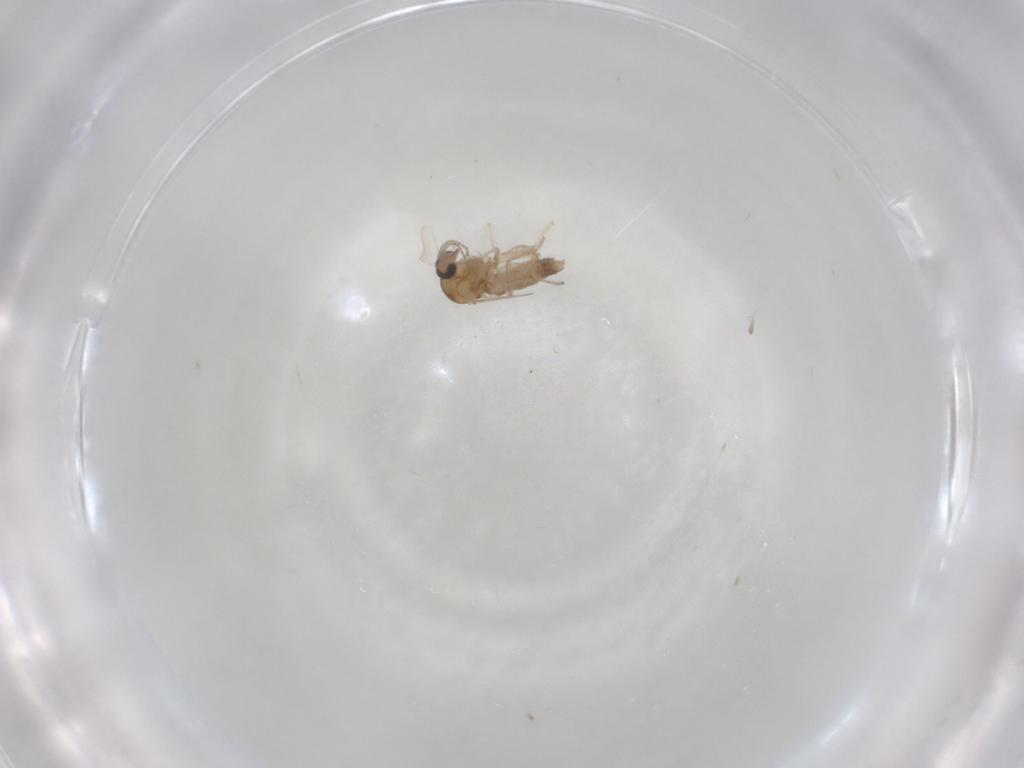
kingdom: Animalia
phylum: Arthropoda
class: Insecta
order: Diptera
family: Ceratopogonidae
